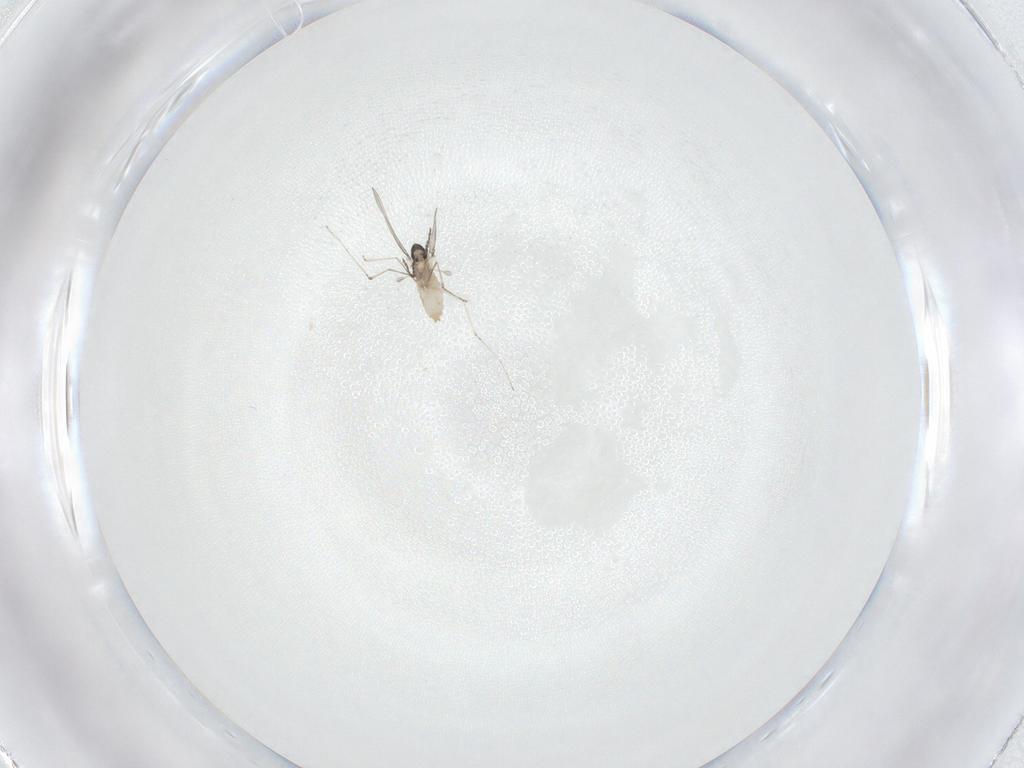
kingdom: Animalia
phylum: Arthropoda
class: Insecta
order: Diptera
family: Cecidomyiidae
